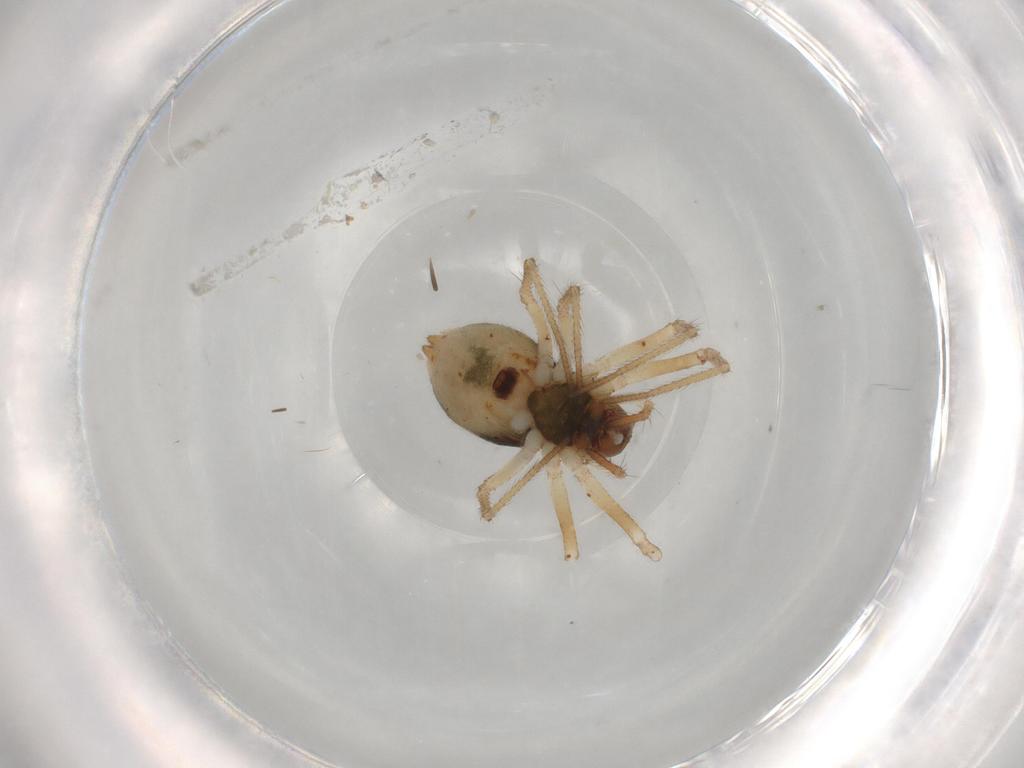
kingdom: Animalia
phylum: Arthropoda
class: Arachnida
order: Araneae
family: Linyphiidae
